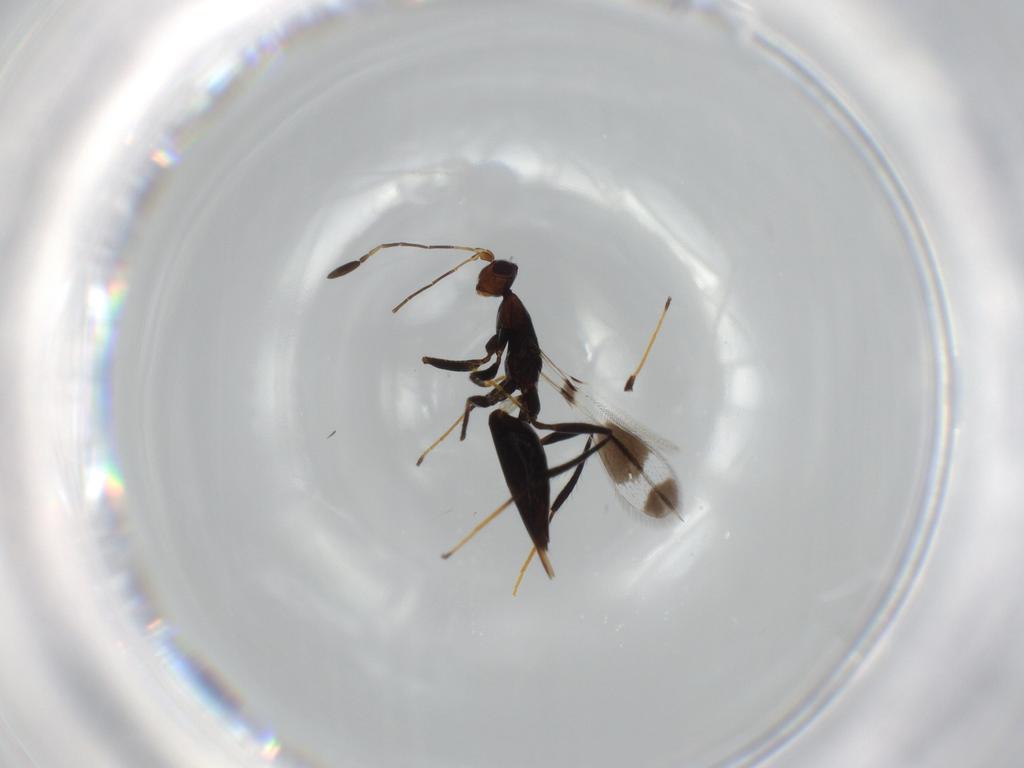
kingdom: Animalia
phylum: Arthropoda
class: Insecta
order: Hymenoptera
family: Mymaridae
